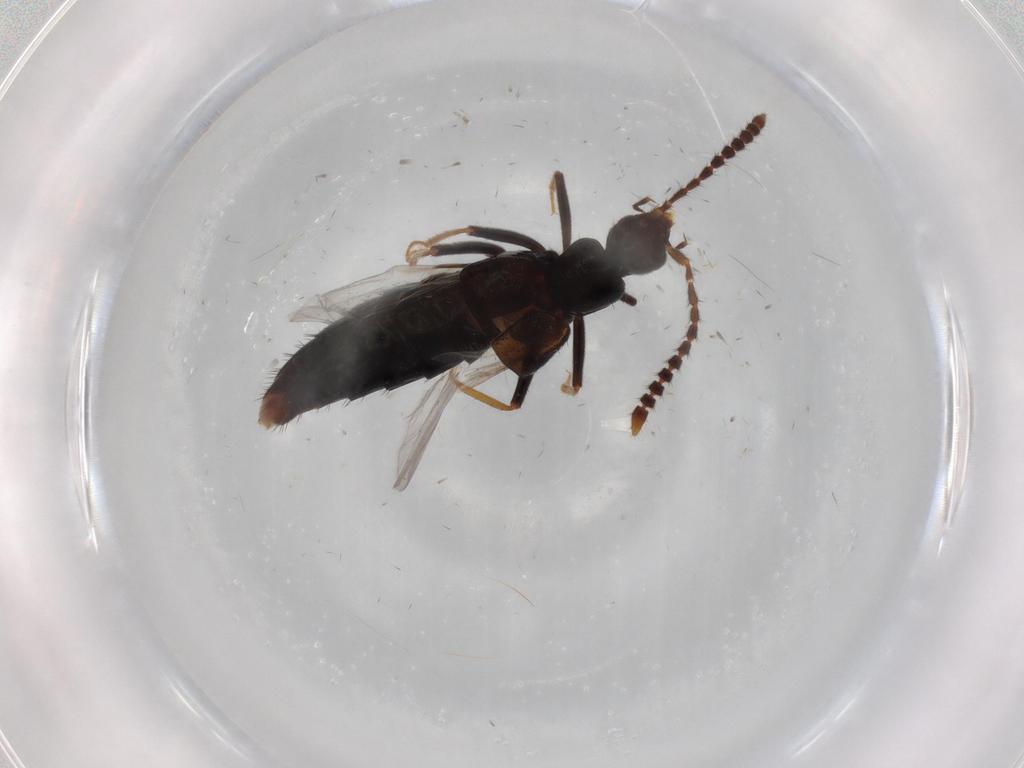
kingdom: Animalia
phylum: Arthropoda
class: Insecta
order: Coleoptera
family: Staphylinidae
